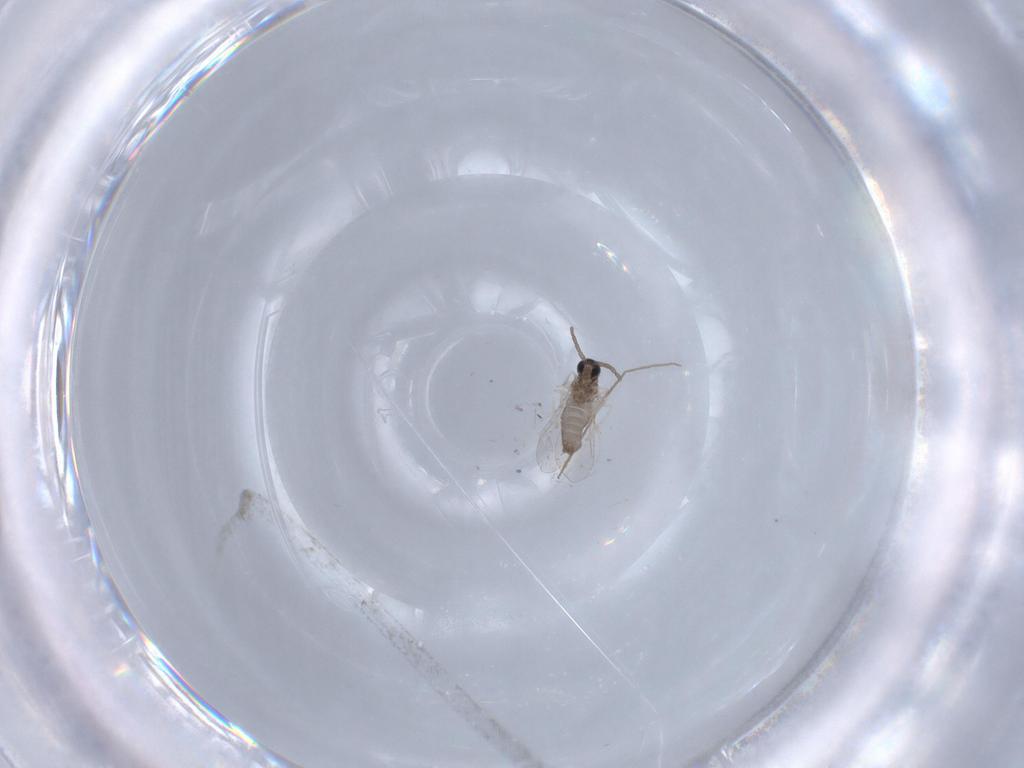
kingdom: Animalia
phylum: Arthropoda
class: Insecta
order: Diptera
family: Cecidomyiidae
